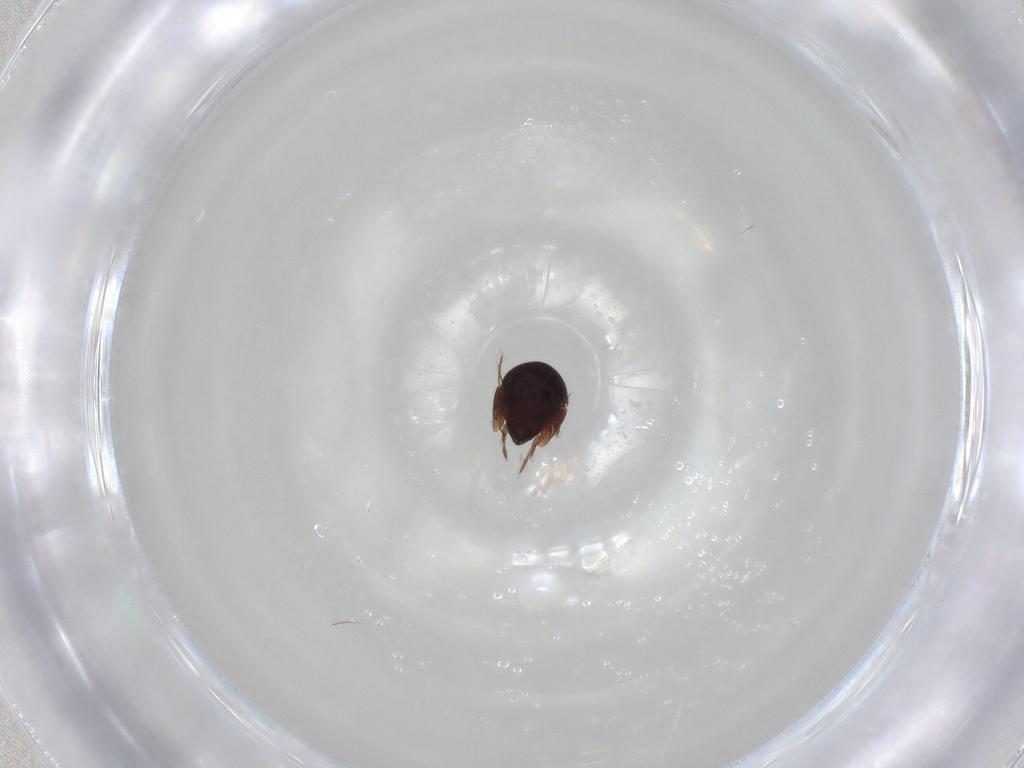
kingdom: Animalia
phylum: Arthropoda
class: Arachnida
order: Sarcoptiformes
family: Galumnidae
